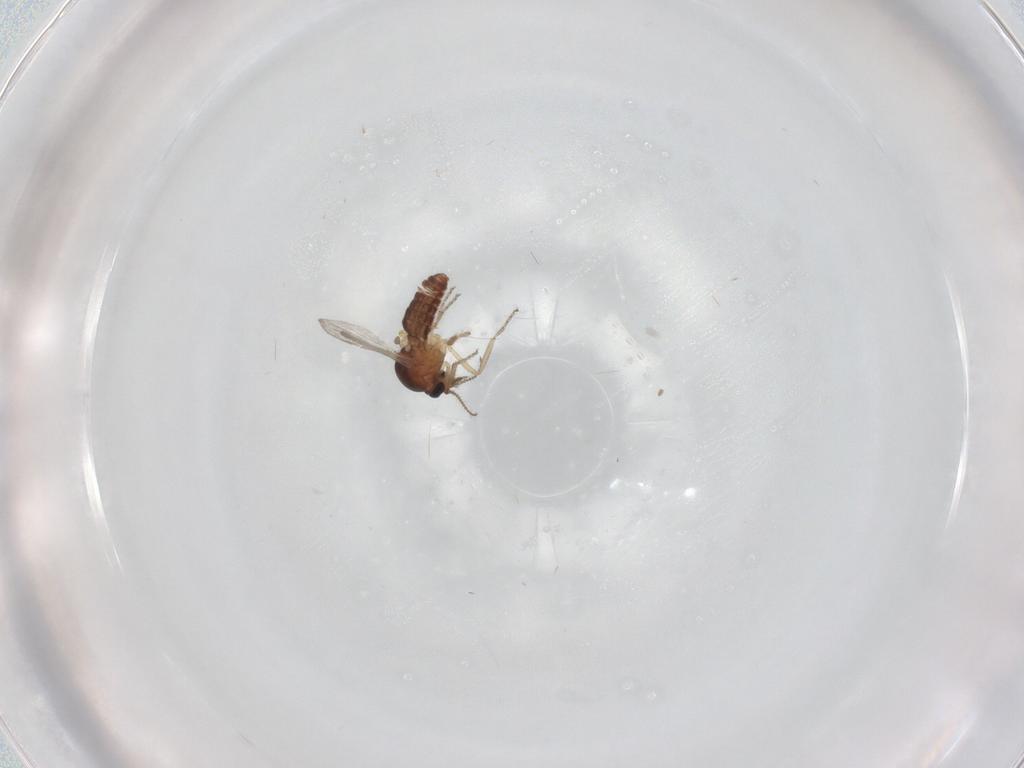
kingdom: Animalia
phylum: Arthropoda
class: Insecta
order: Diptera
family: Ceratopogonidae
